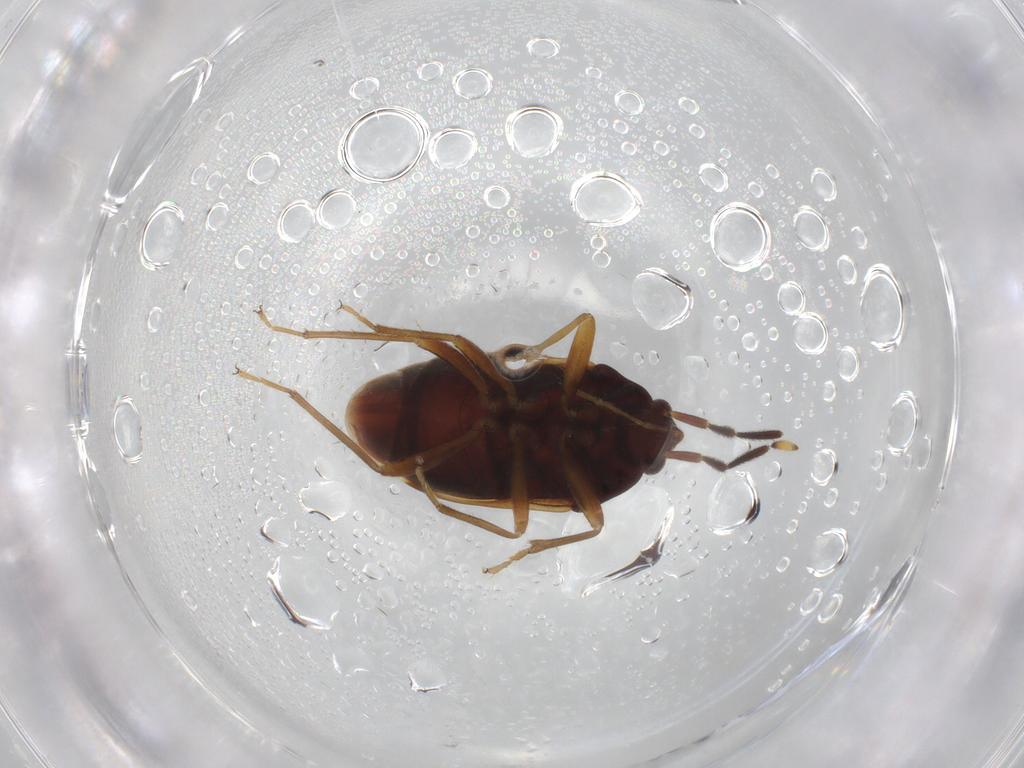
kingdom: Animalia
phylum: Arthropoda
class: Insecta
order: Hemiptera
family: Rhyparochromidae
